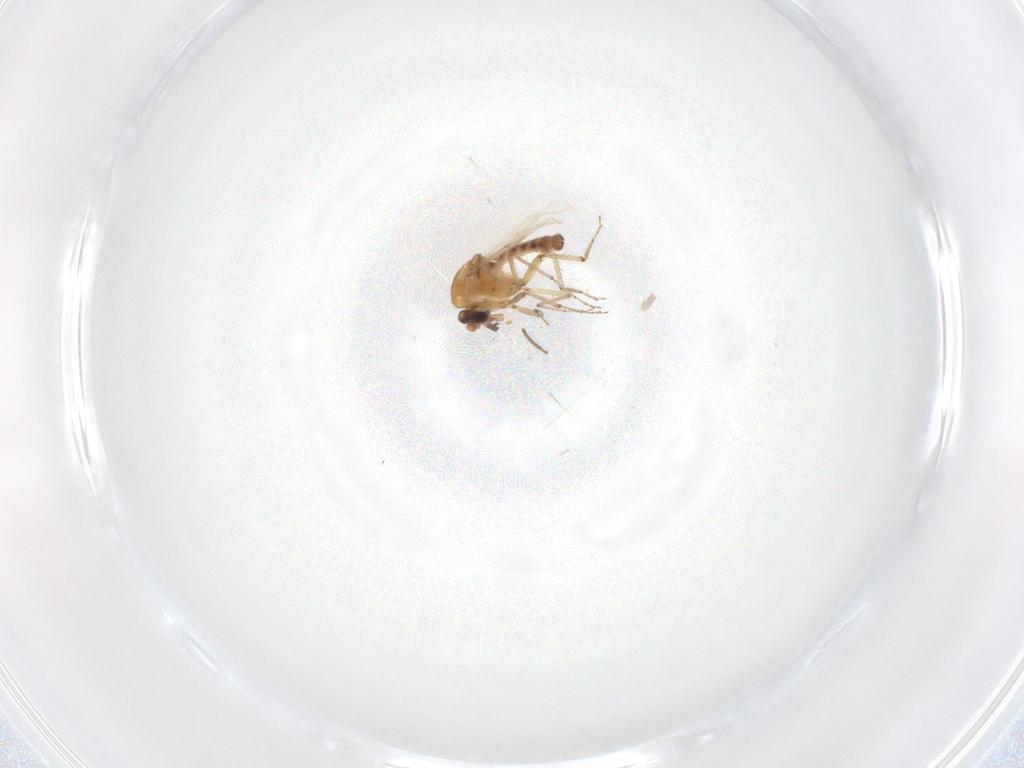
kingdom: Animalia
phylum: Arthropoda
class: Insecta
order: Diptera
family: Ceratopogonidae
